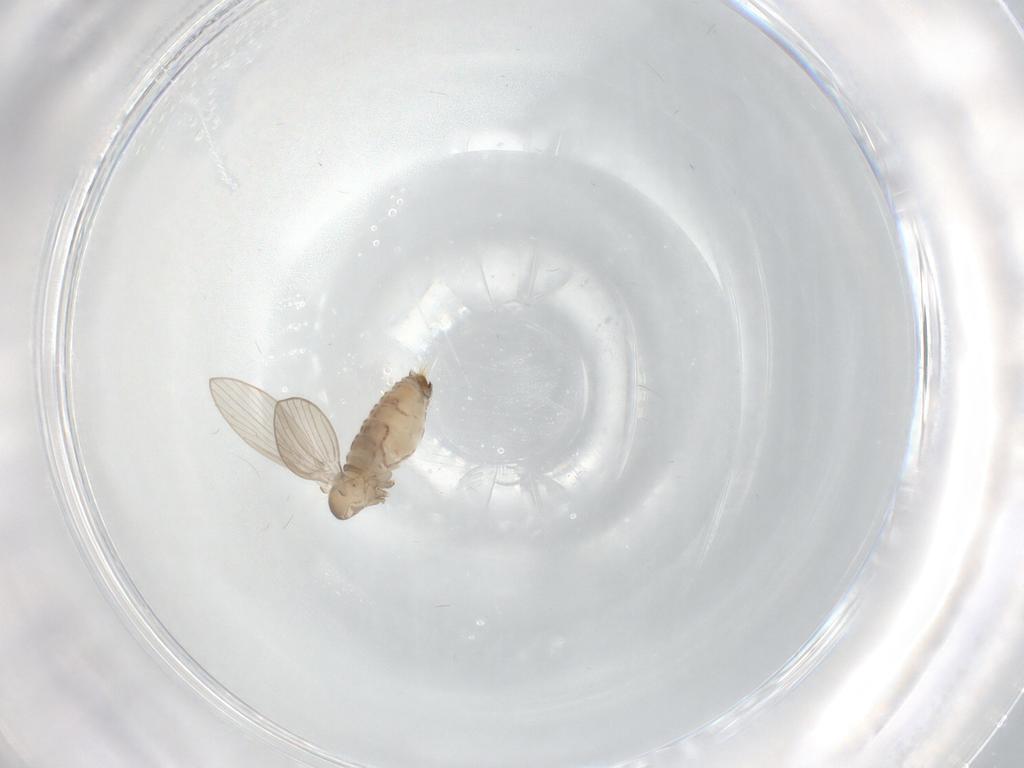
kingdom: Animalia
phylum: Arthropoda
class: Insecta
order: Diptera
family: Psychodidae
